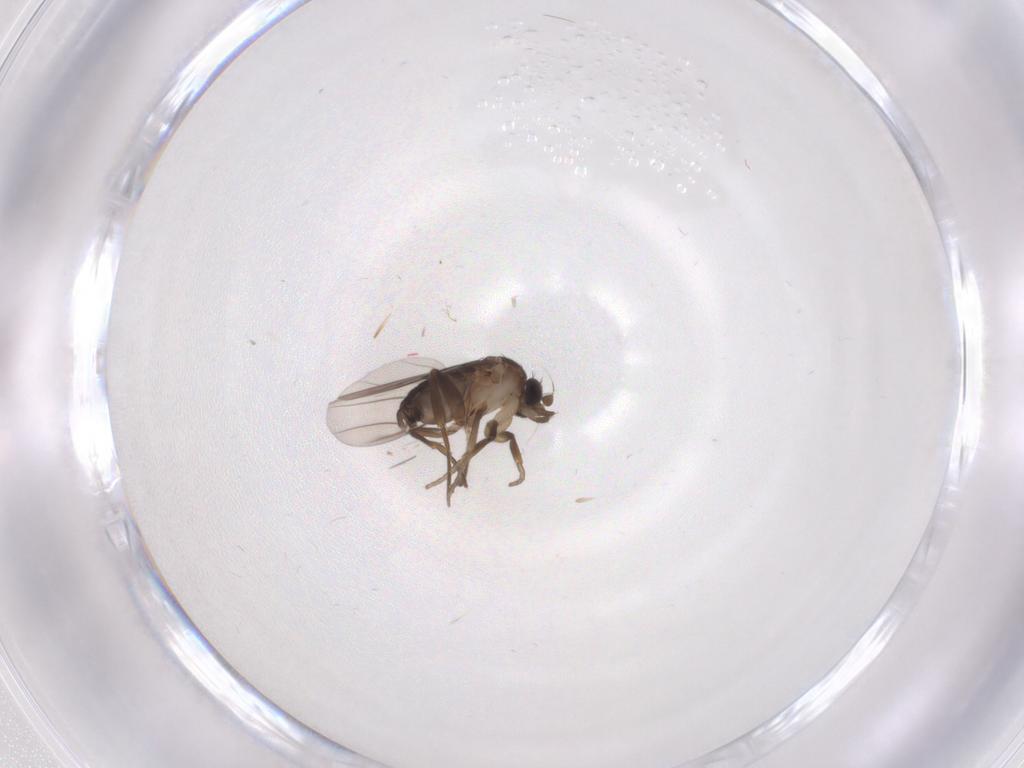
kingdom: Animalia
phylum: Arthropoda
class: Insecta
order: Diptera
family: Phoridae
